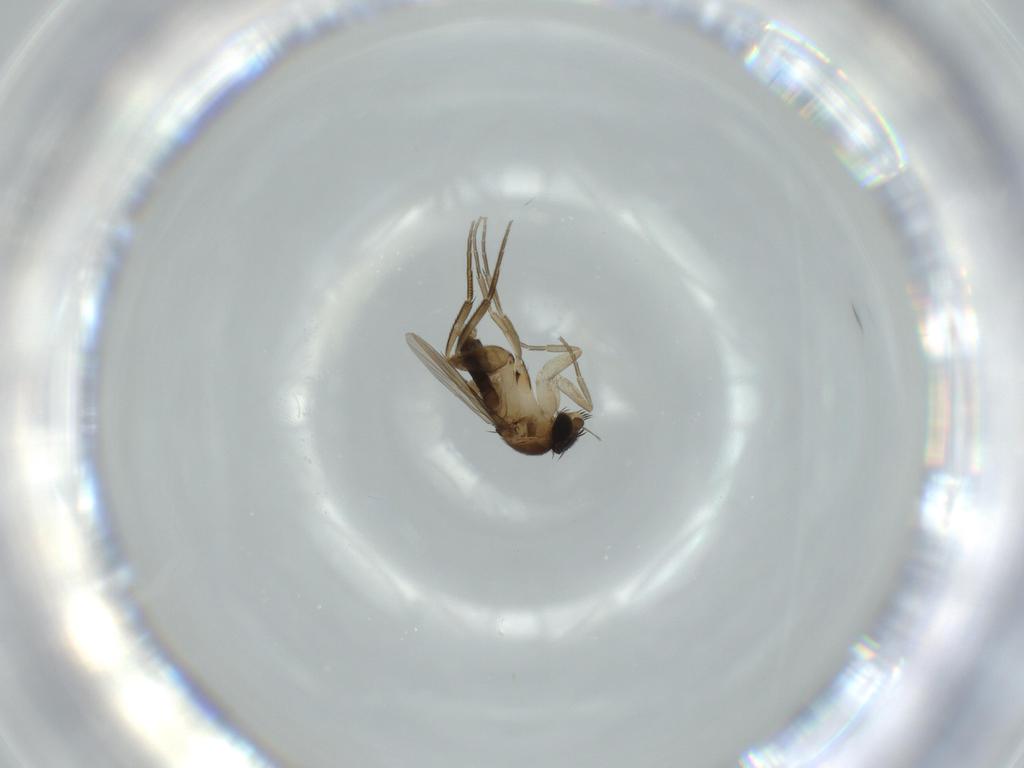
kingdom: Animalia
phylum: Arthropoda
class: Insecta
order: Diptera
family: Phoridae
